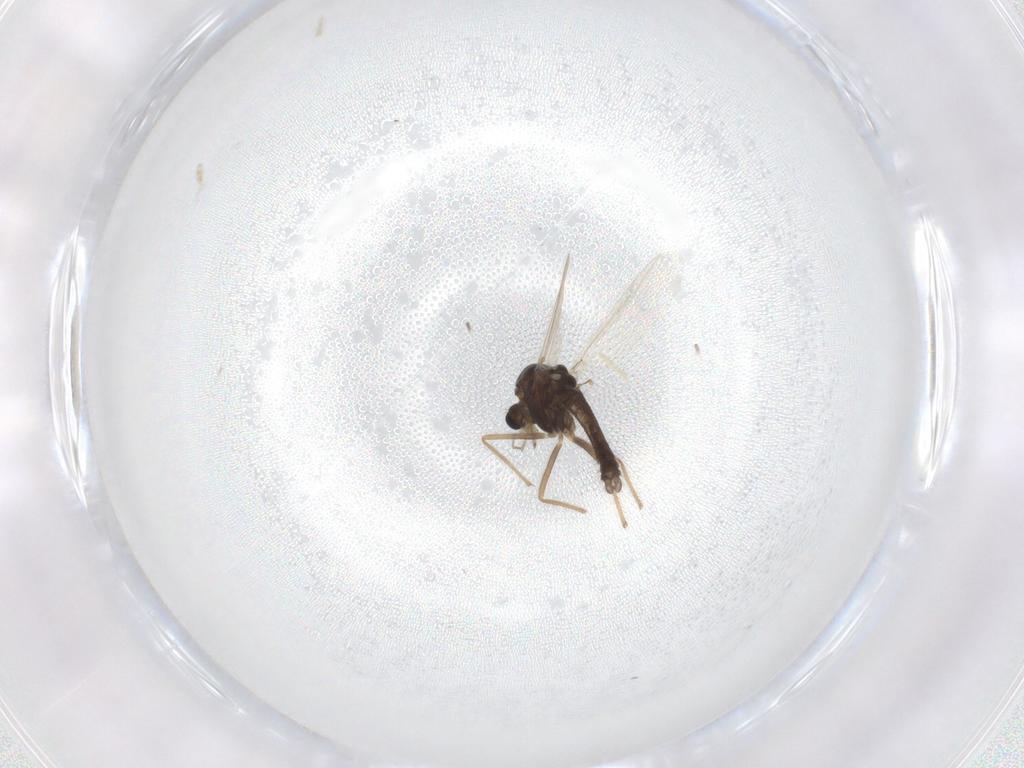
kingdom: Animalia
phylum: Arthropoda
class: Insecta
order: Diptera
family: Chironomidae
